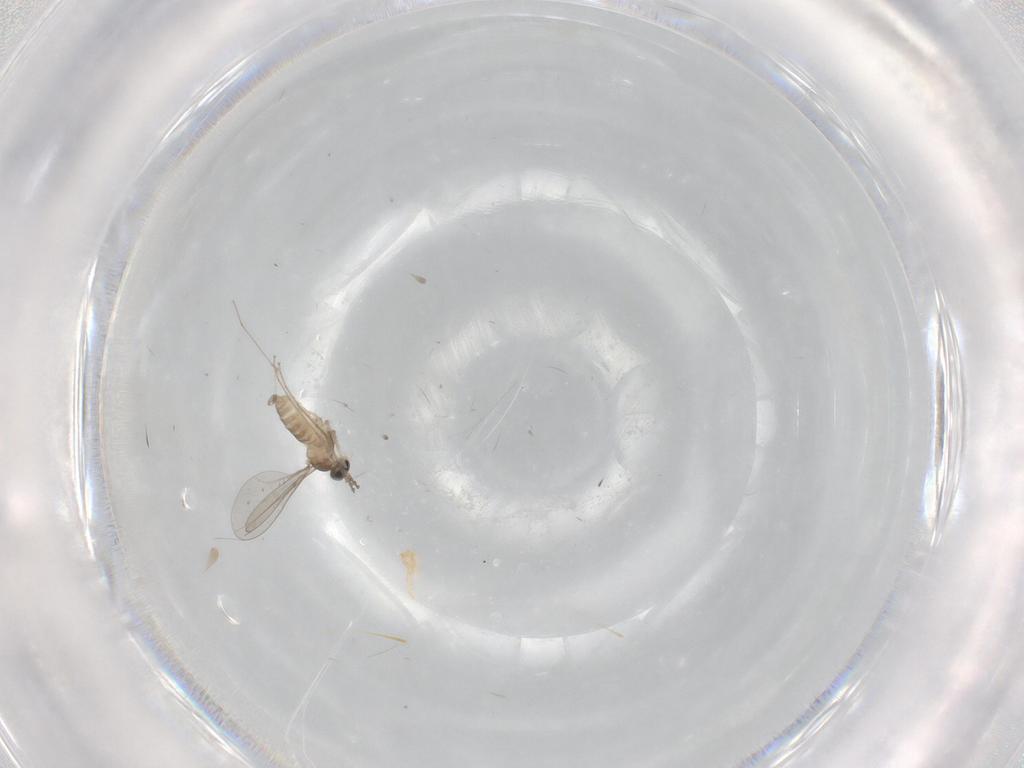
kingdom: Animalia
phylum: Arthropoda
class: Insecta
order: Diptera
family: Cecidomyiidae
